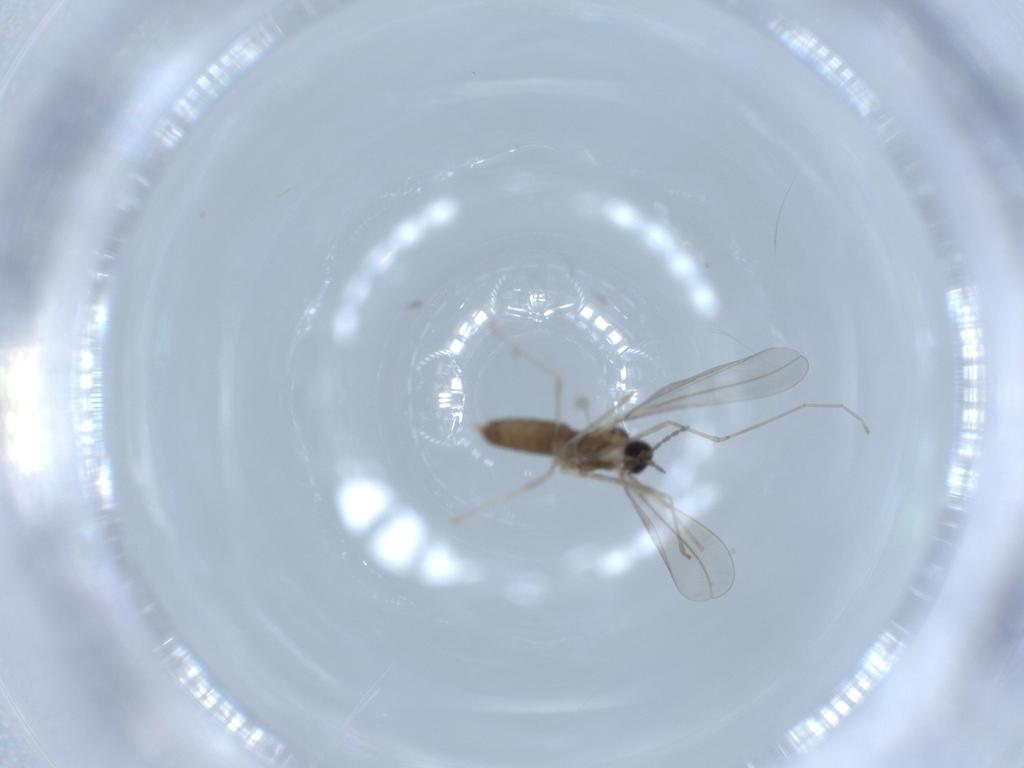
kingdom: Animalia
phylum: Arthropoda
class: Insecta
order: Diptera
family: Cecidomyiidae
